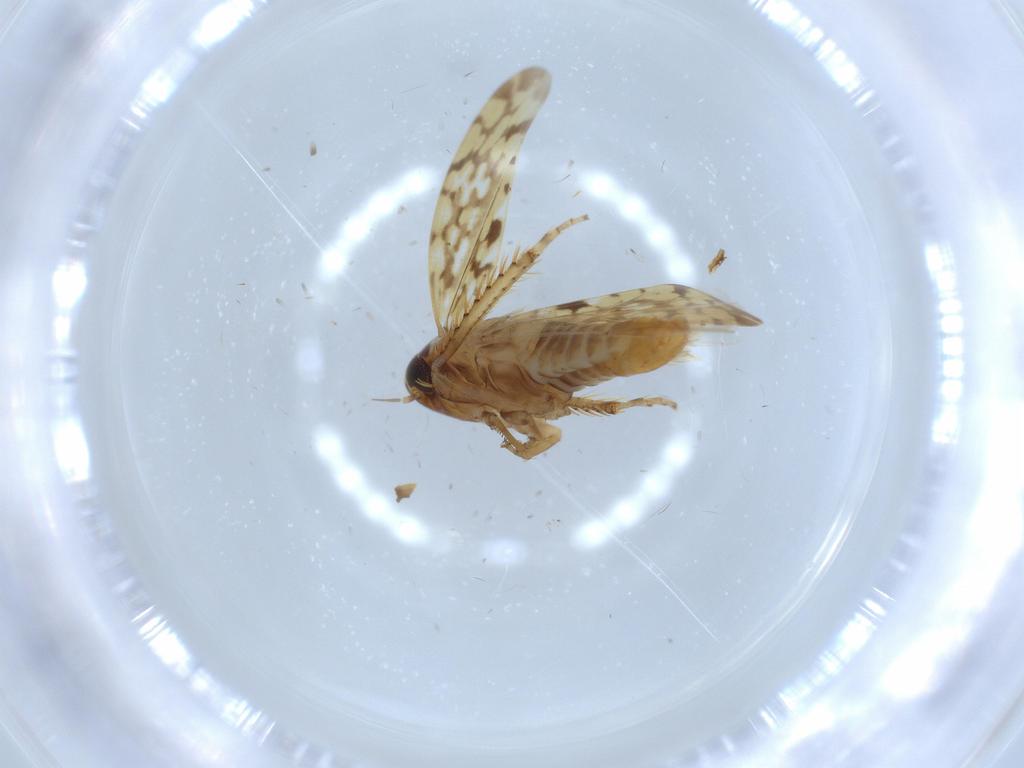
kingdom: Animalia
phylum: Arthropoda
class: Insecta
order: Hemiptera
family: Cicadellidae
